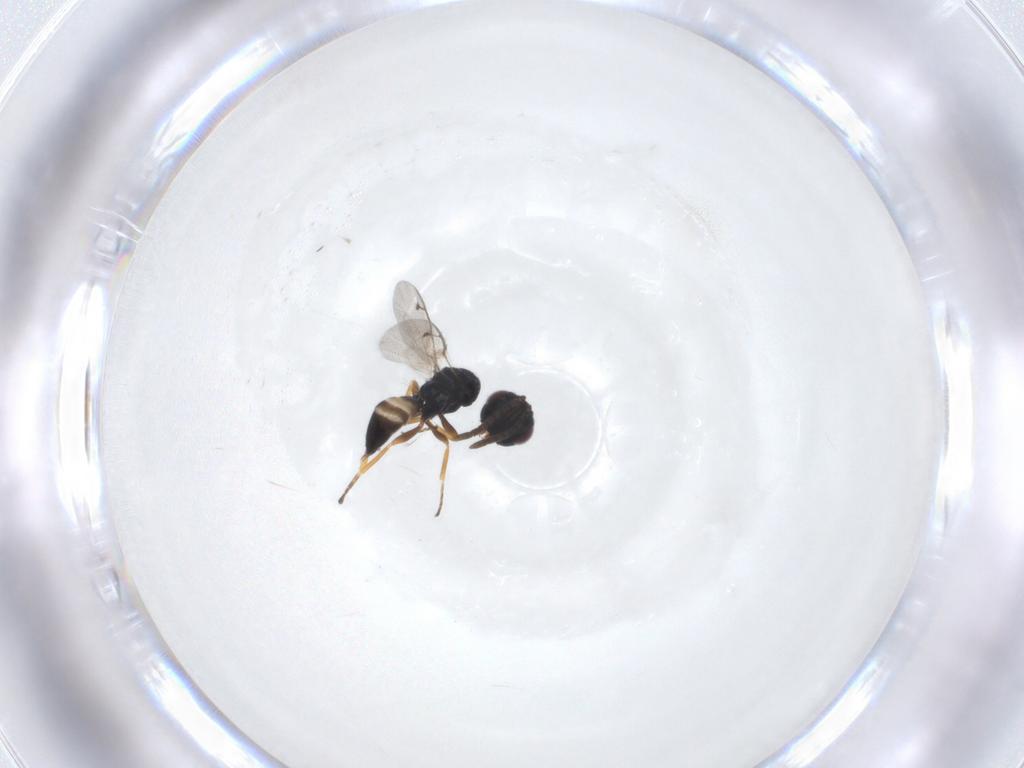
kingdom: Animalia
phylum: Arthropoda
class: Insecta
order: Hymenoptera
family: Pteromalidae
